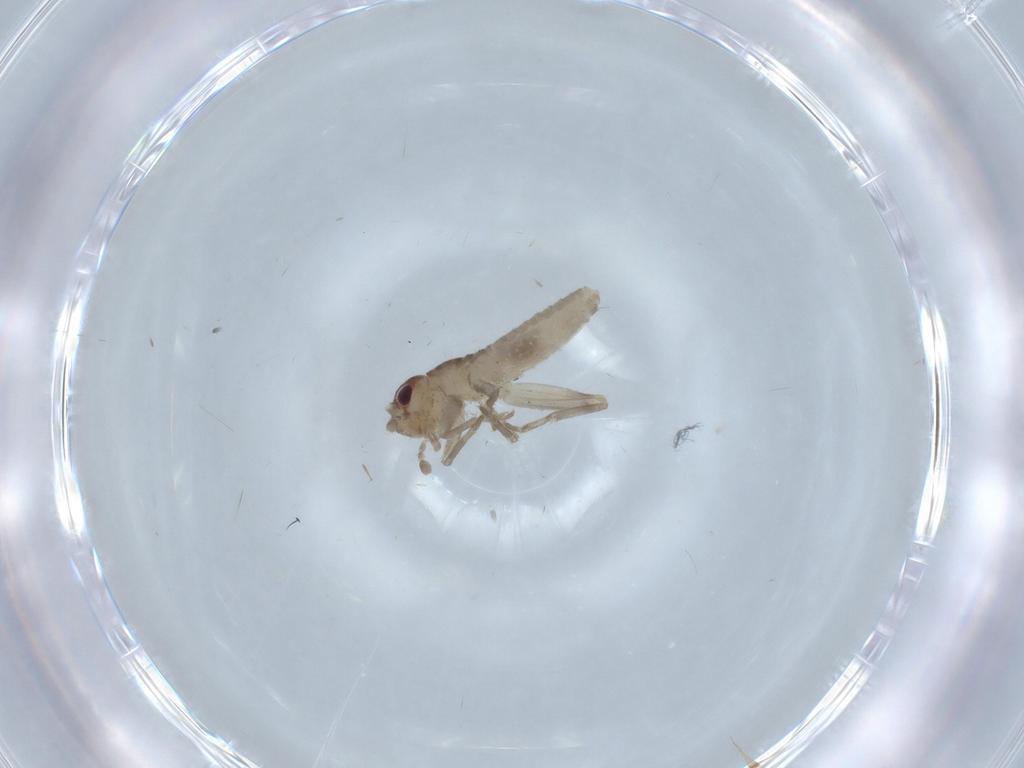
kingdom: Animalia
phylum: Arthropoda
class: Insecta
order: Orthoptera
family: Mogoplistidae
